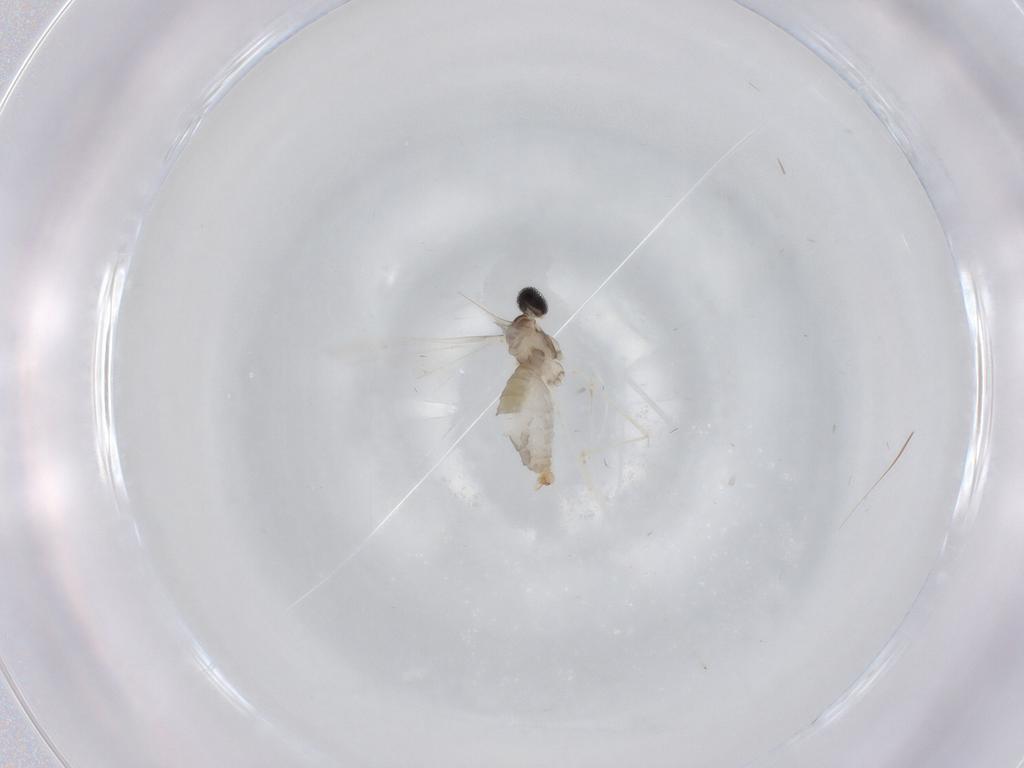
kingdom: Animalia
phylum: Arthropoda
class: Insecta
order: Diptera
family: Cecidomyiidae
